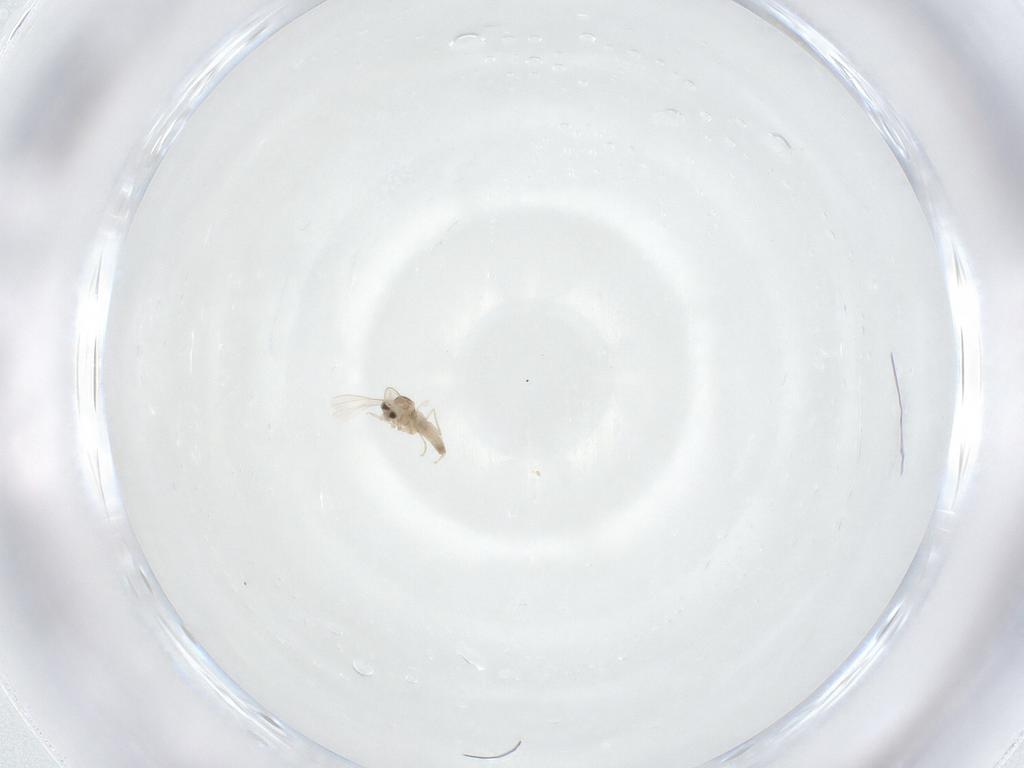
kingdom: Animalia
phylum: Arthropoda
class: Insecta
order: Diptera
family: Cecidomyiidae
